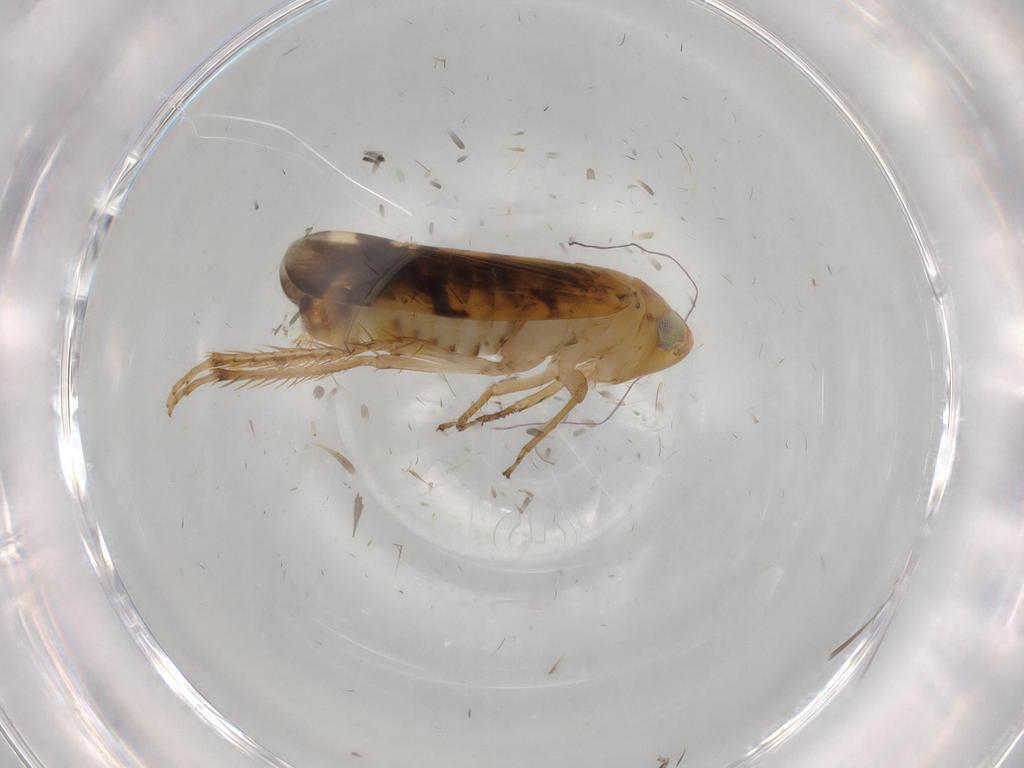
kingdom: Animalia
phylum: Arthropoda
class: Insecta
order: Hemiptera
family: Cicadellidae
